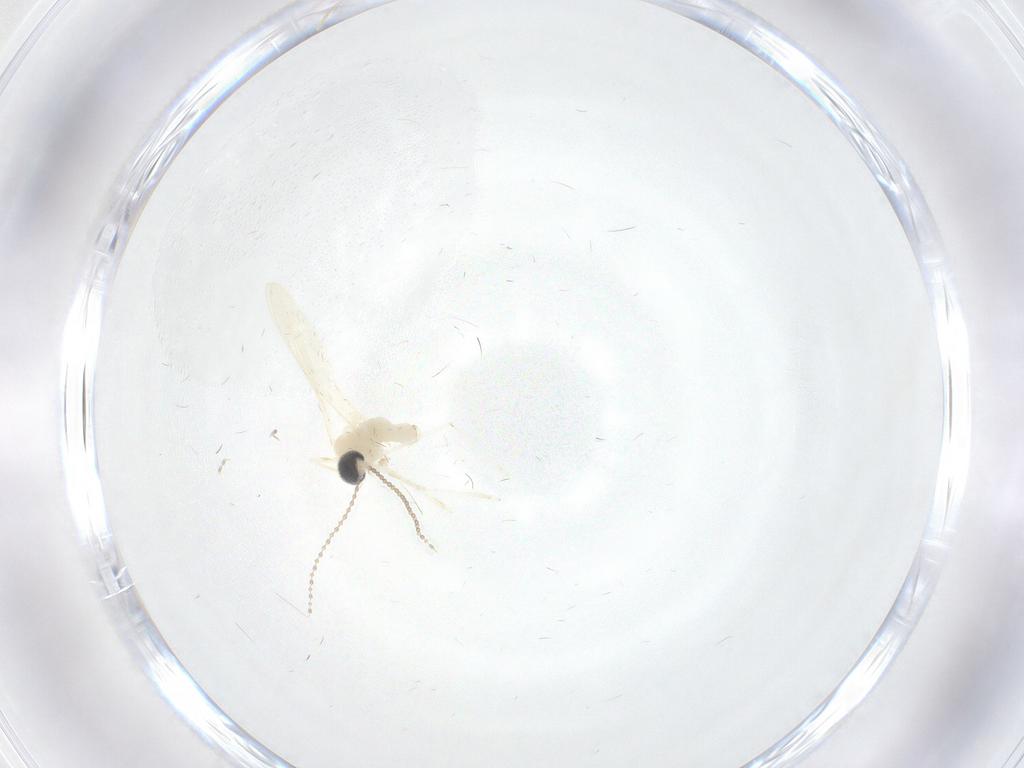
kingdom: Animalia
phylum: Arthropoda
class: Insecta
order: Diptera
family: Cecidomyiidae
